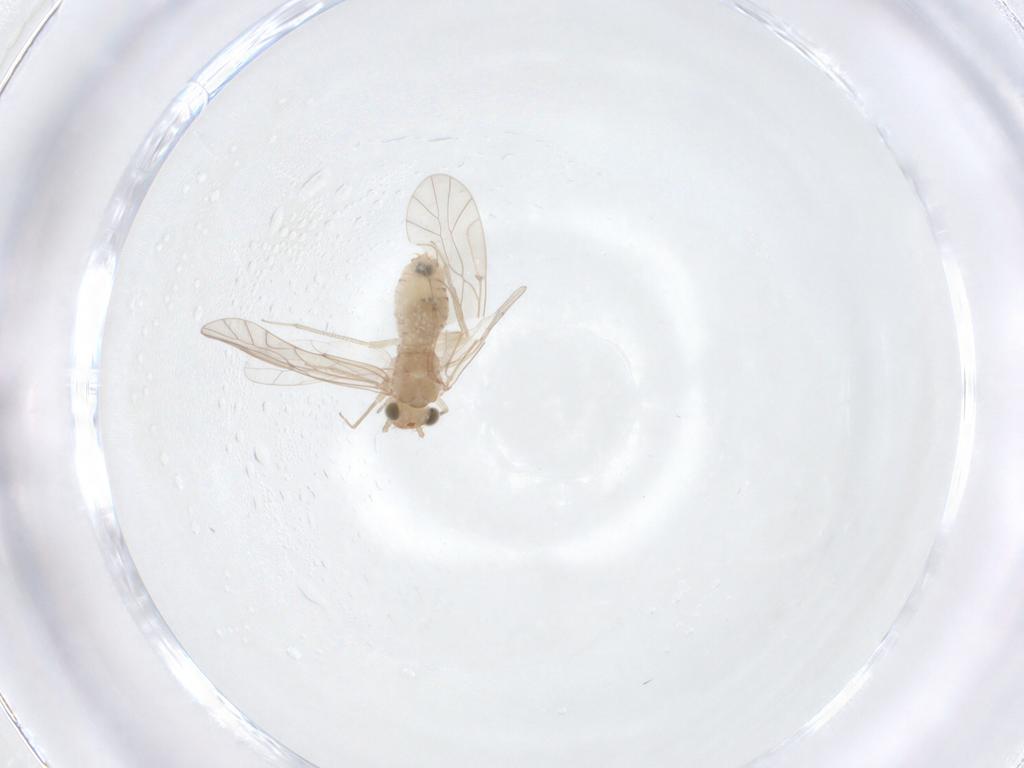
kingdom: Animalia
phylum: Arthropoda
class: Insecta
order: Psocodea
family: Lachesillidae
